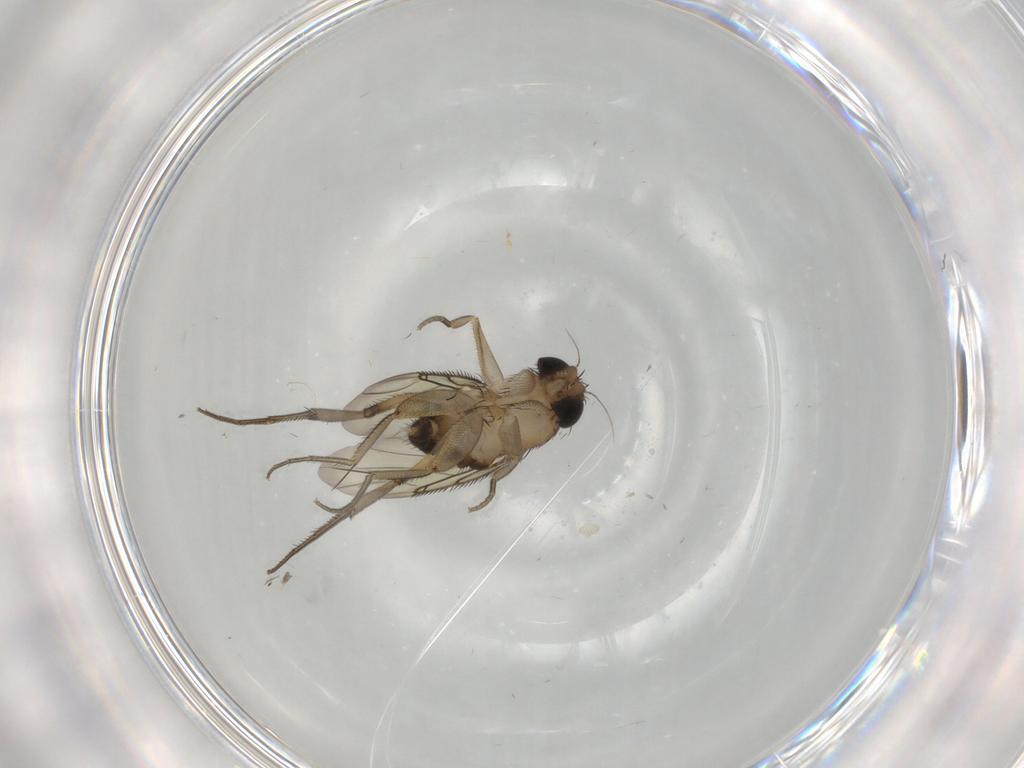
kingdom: Animalia
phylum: Arthropoda
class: Insecta
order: Diptera
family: Phoridae
